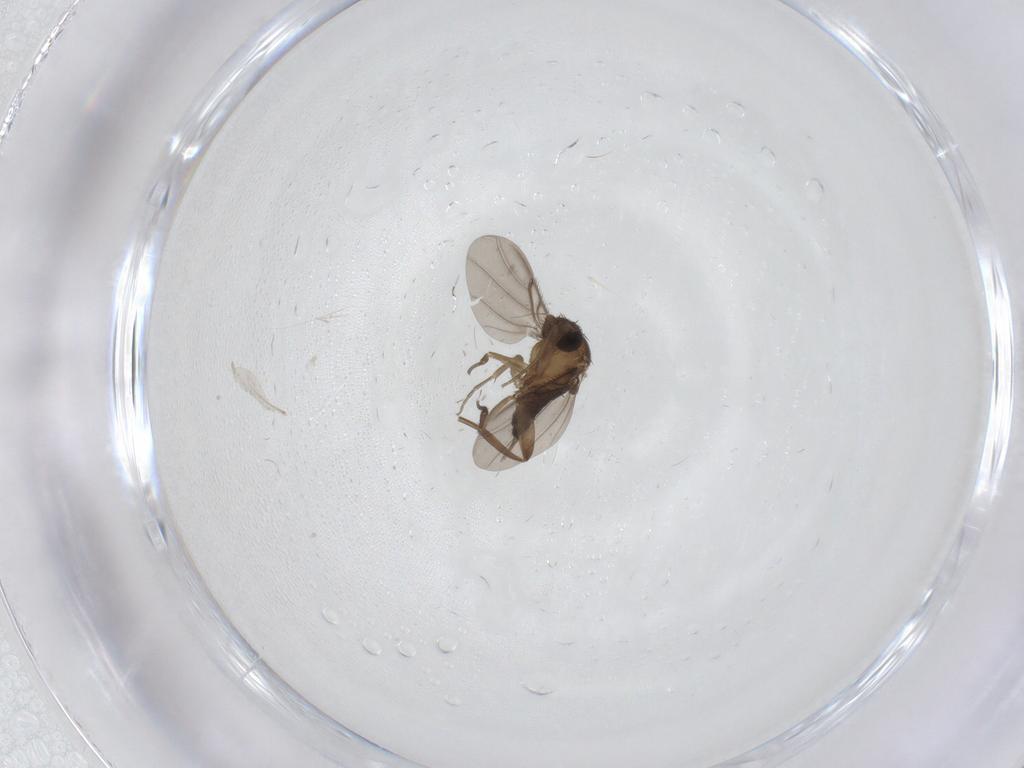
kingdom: Animalia
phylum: Arthropoda
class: Insecta
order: Diptera
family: Phoridae
